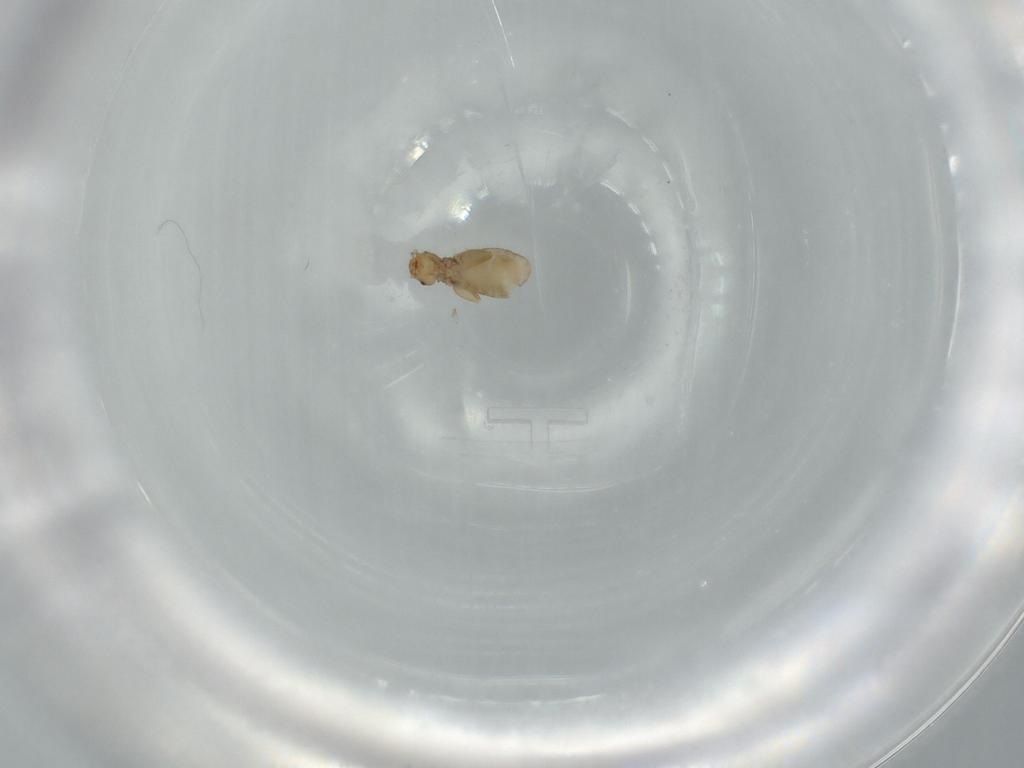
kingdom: Animalia
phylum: Arthropoda
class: Insecta
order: Psocodea
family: Liposcelididae
